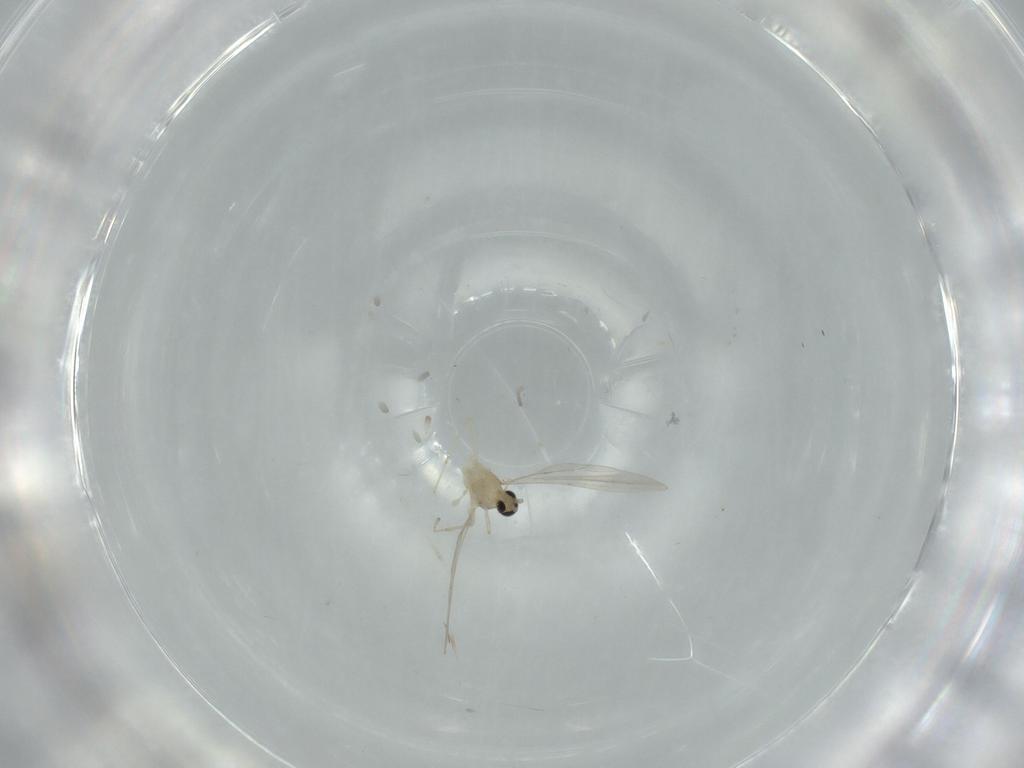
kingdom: Animalia
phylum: Arthropoda
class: Insecta
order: Diptera
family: Cecidomyiidae
